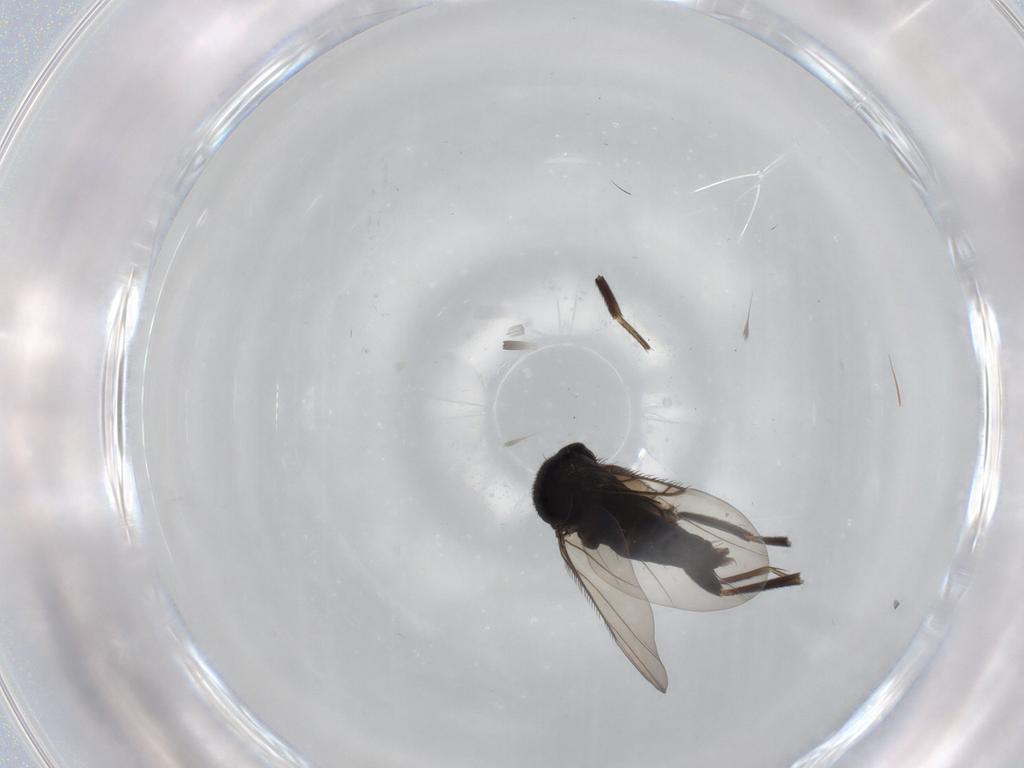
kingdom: Animalia
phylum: Arthropoda
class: Insecta
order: Diptera
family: Phoridae
